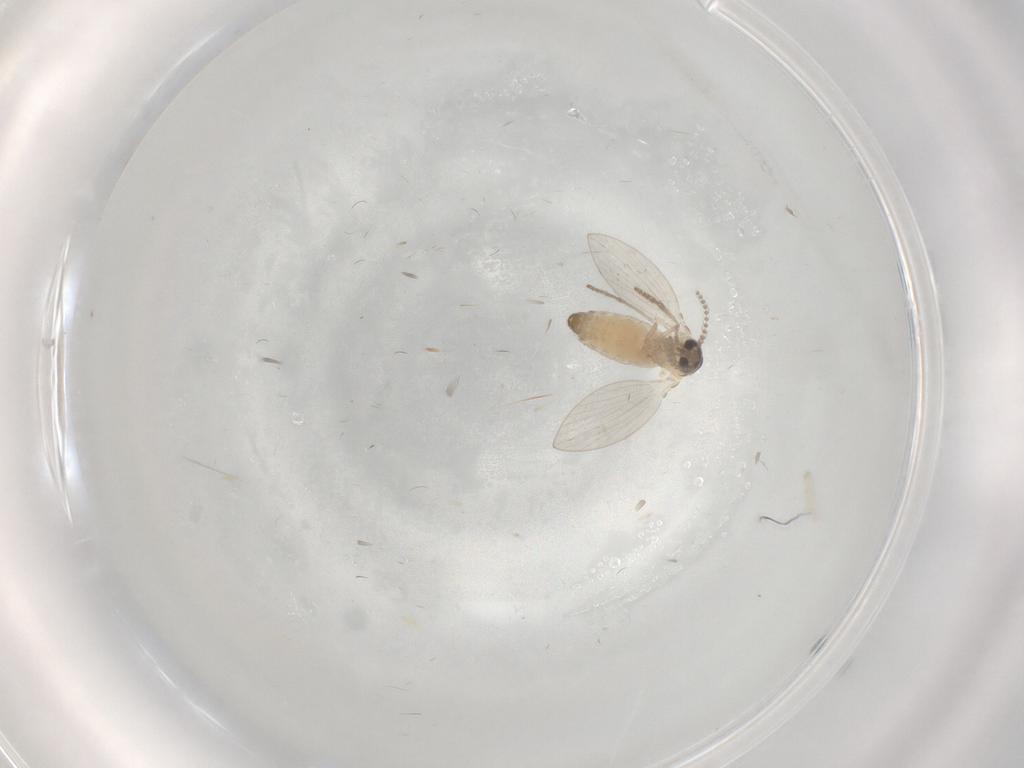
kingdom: Animalia
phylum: Arthropoda
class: Insecta
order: Diptera
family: Psychodidae
